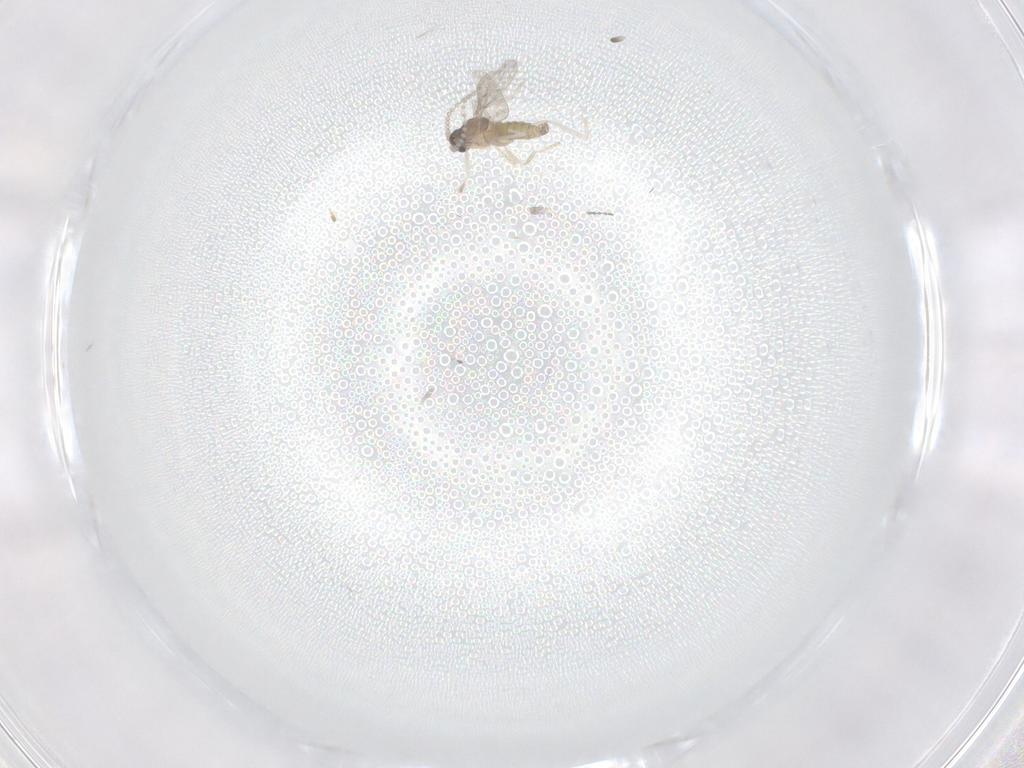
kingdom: Animalia
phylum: Arthropoda
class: Insecta
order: Diptera
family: Cecidomyiidae
